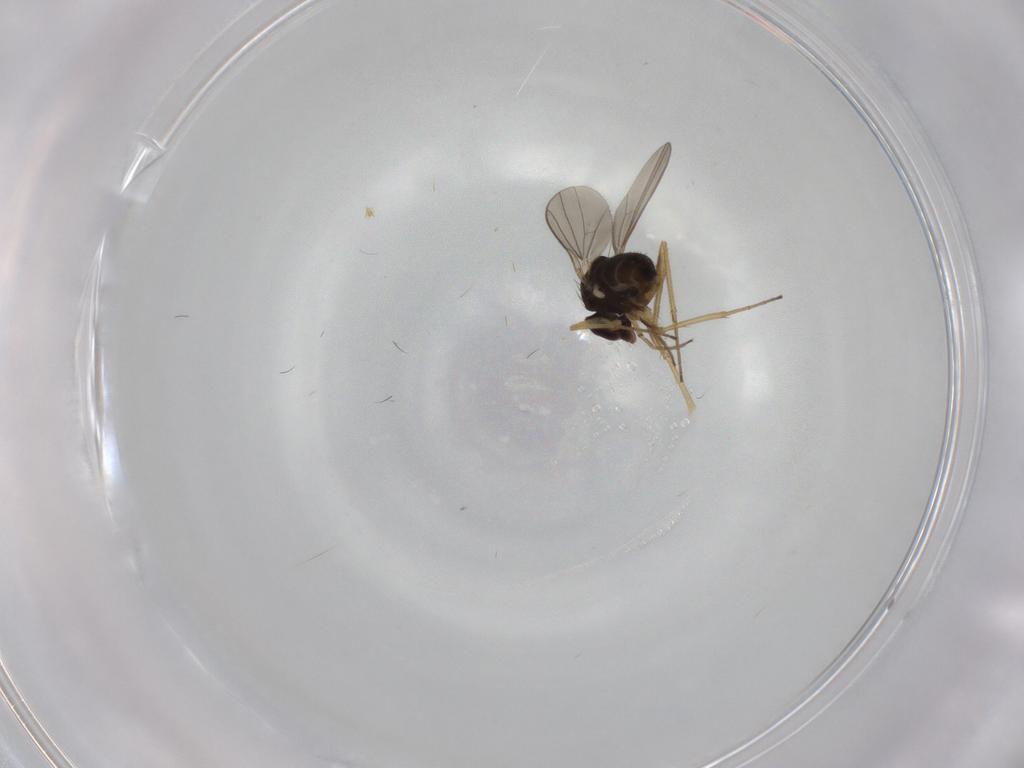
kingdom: Animalia
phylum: Arthropoda
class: Insecta
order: Diptera
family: Dolichopodidae
